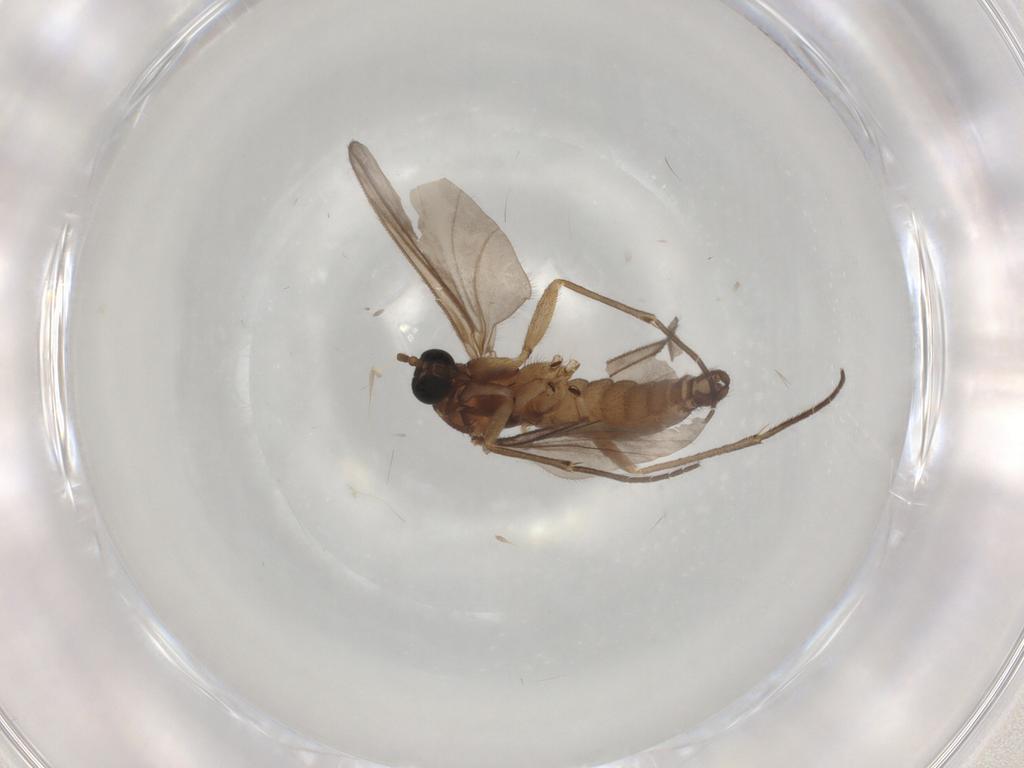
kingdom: Animalia
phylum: Arthropoda
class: Insecta
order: Diptera
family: Sciaridae
